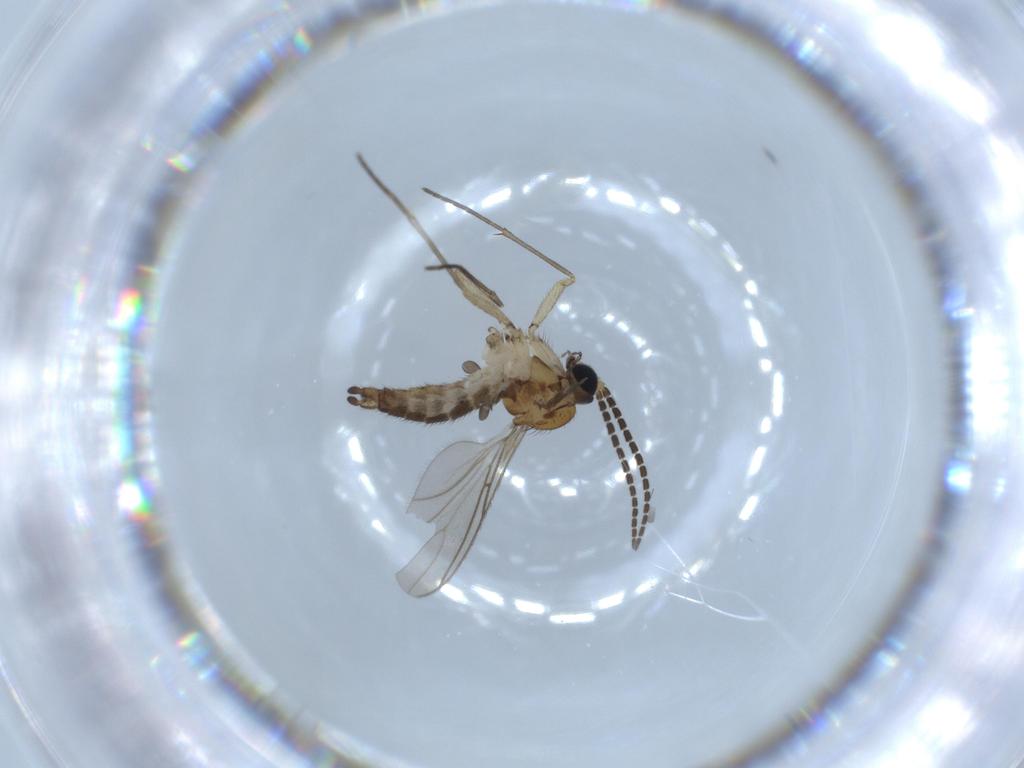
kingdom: Animalia
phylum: Arthropoda
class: Insecta
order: Diptera
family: Sciaridae
